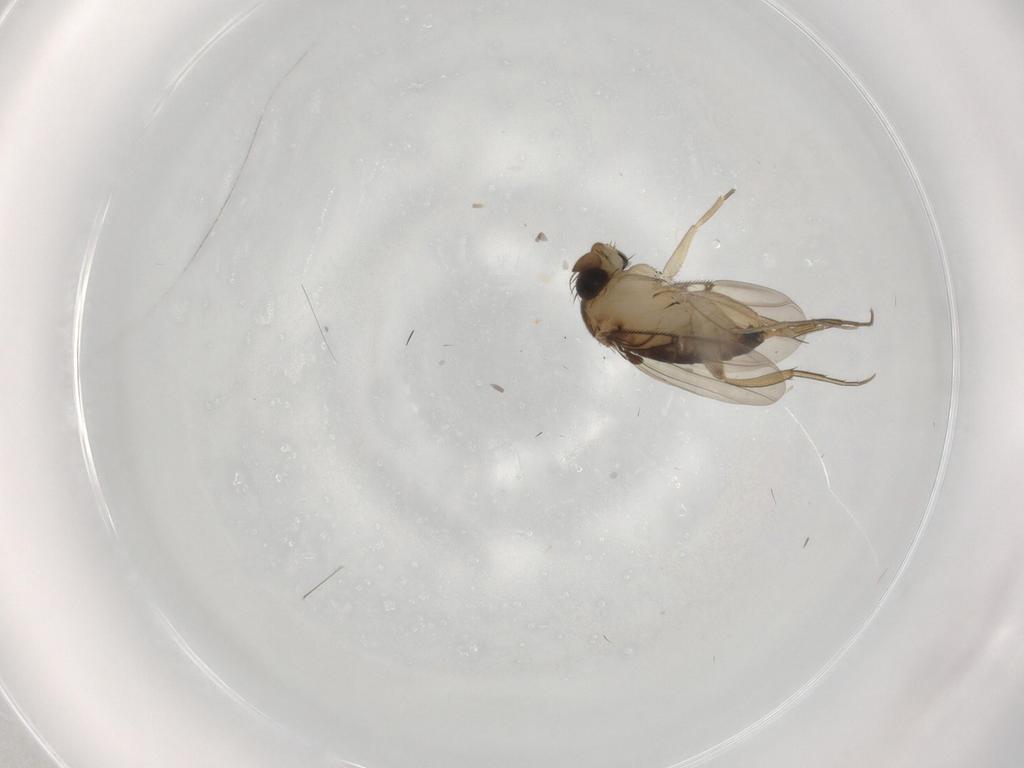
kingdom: Animalia
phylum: Arthropoda
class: Insecta
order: Diptera
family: Phoridae
